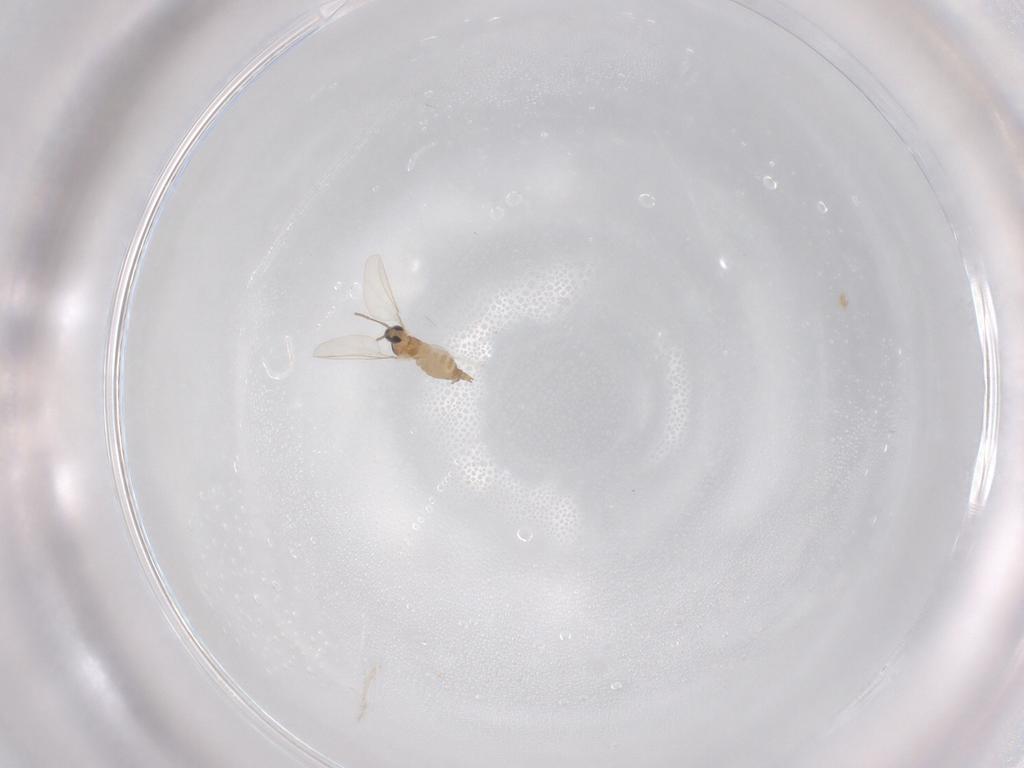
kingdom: Animalia
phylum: Arthropoda
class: Insecta
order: Diptera
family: Cecidomyiidae
